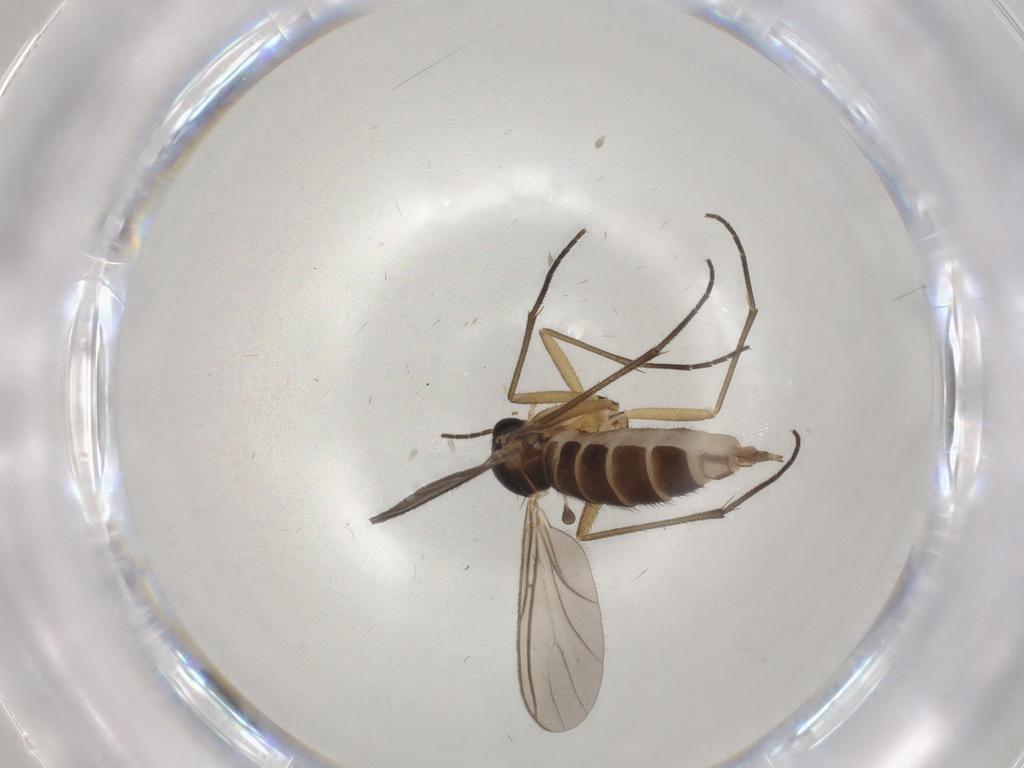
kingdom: Animalia
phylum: Arthropoda
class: Insecta
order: Diptera
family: Sciaridae
